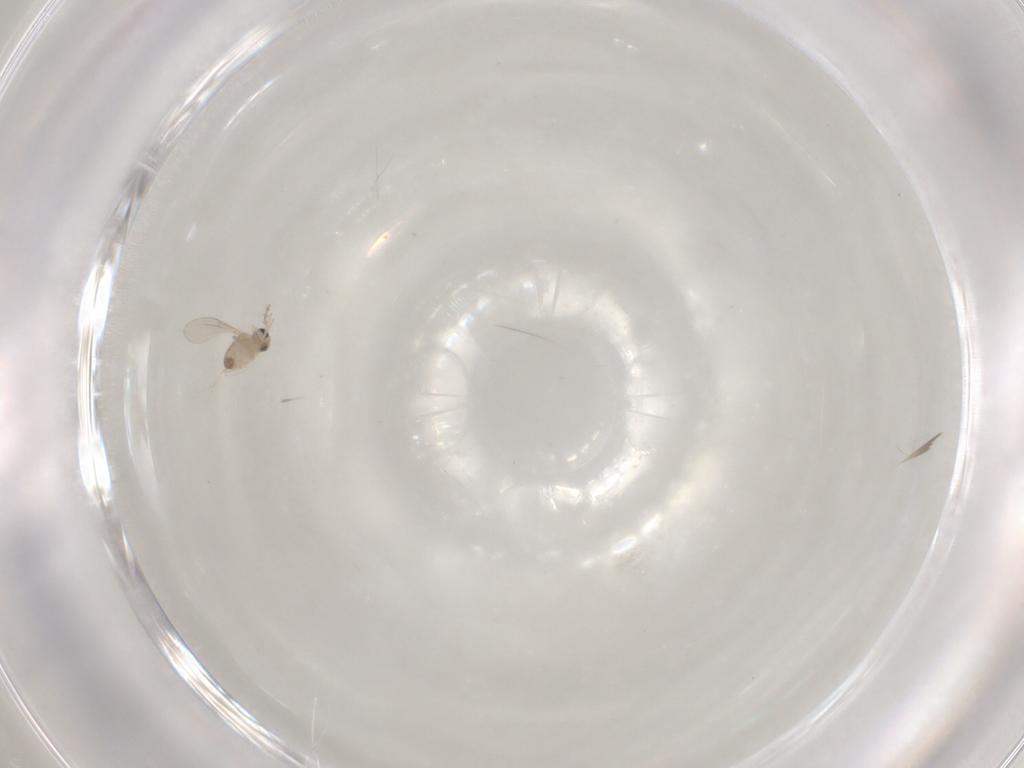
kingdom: Animalia
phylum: Arthropoda
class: Insecta
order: Diptera
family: Cecidomyiidae
